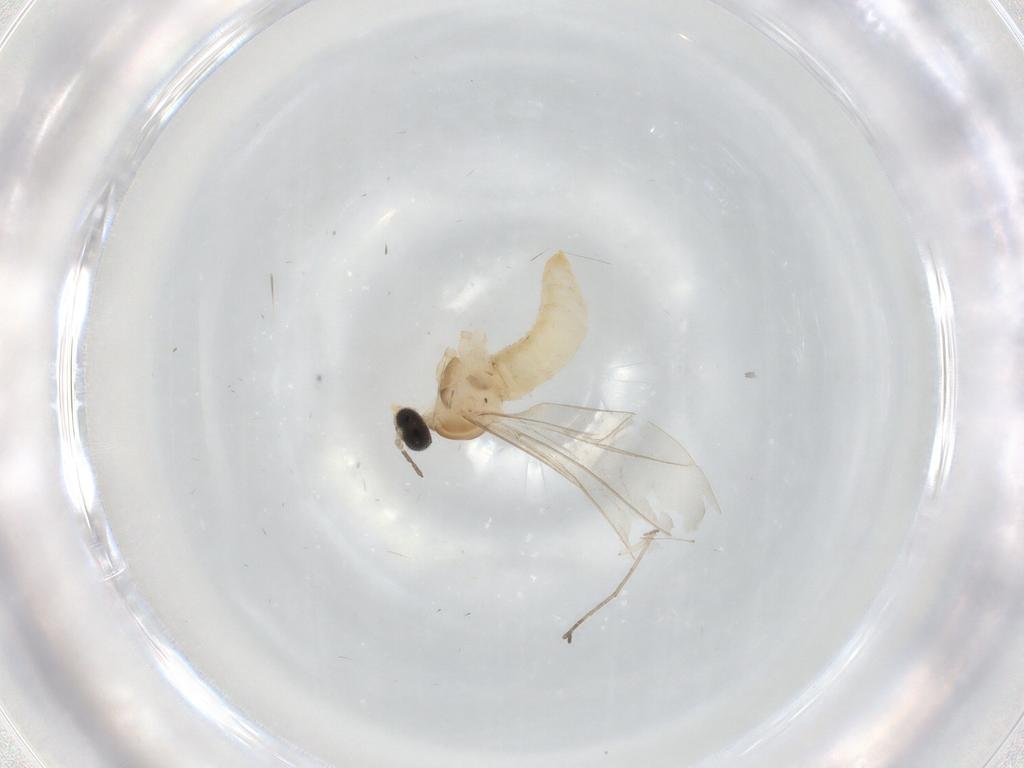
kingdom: Animalia
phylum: Arthropoda
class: Insecta
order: Diptera
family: Cecidomyiidae
